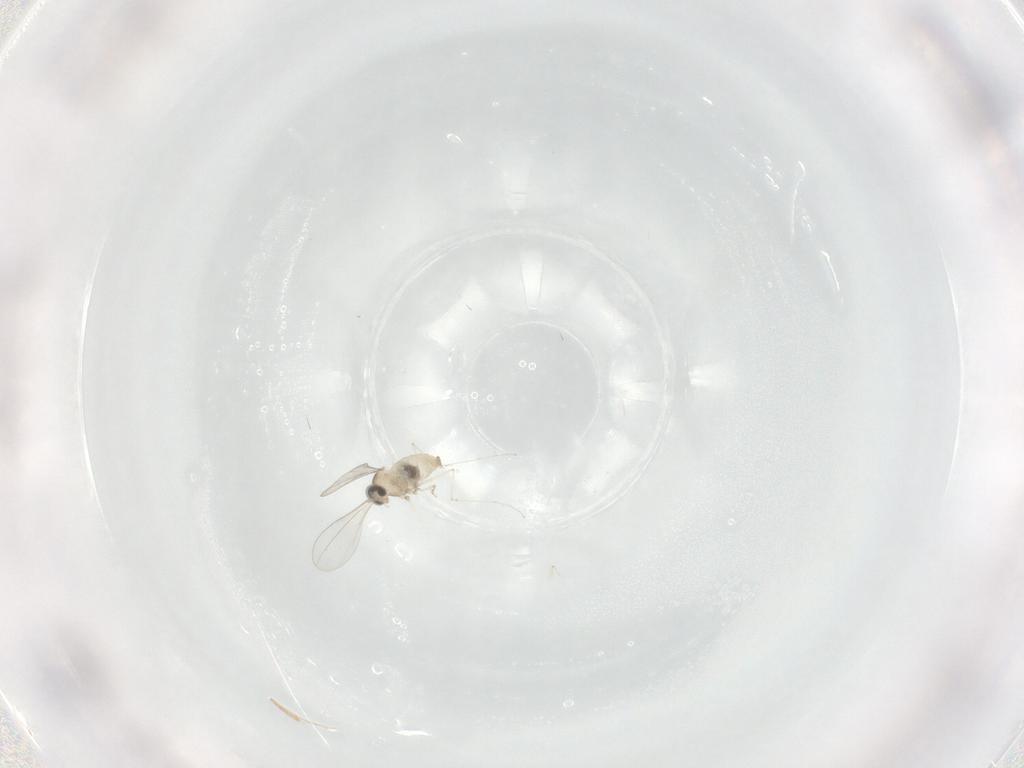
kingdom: Animalia
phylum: Arthropoda
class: Insecta
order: Diptera
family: Cecidomyiidae
